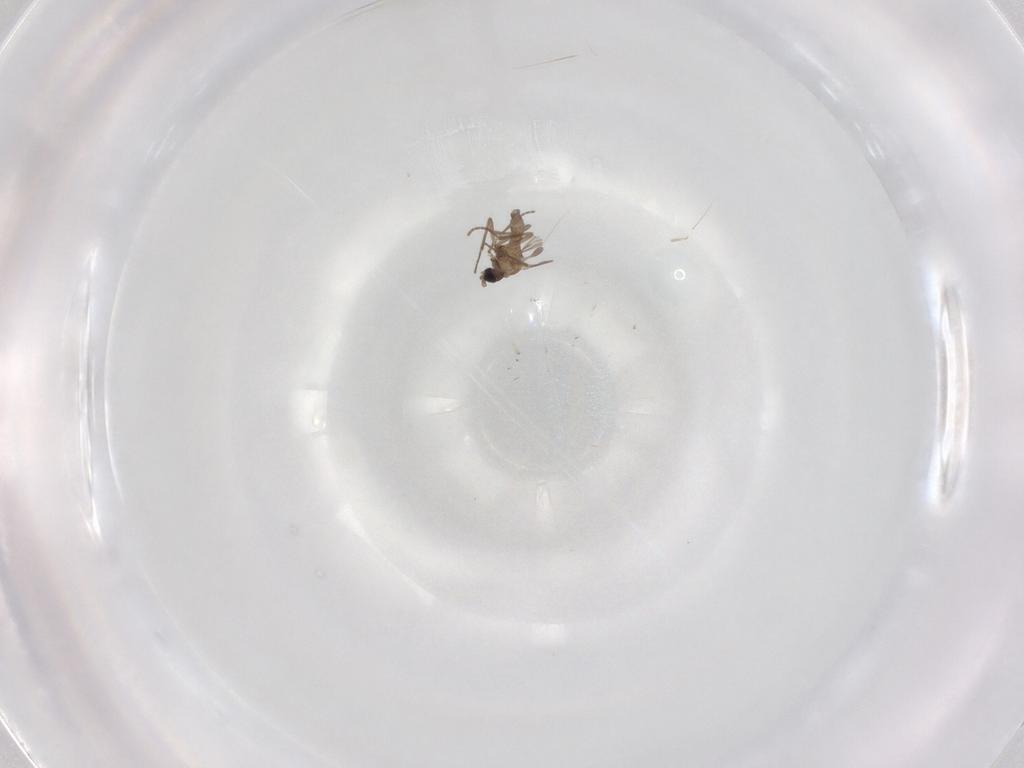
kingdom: Animalia
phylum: Arthropoda
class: Insecta
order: Diptera
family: Sciaridae
